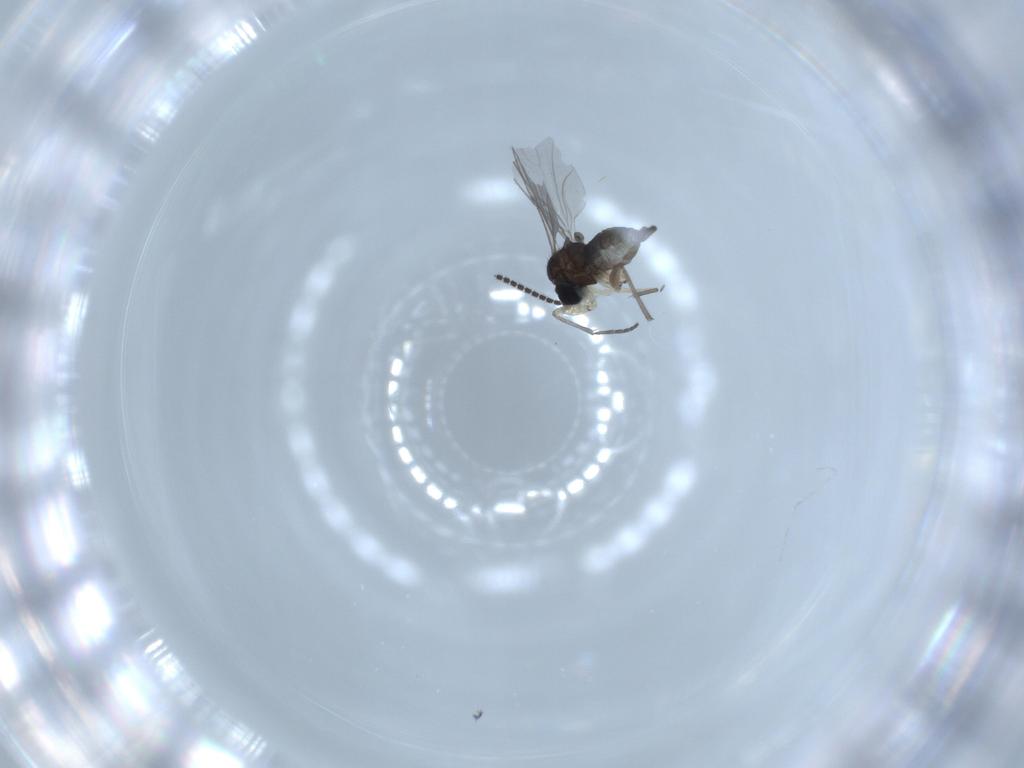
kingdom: Animalia
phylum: Arthropoda
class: Insecta
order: Diptera
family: Sciaridae
